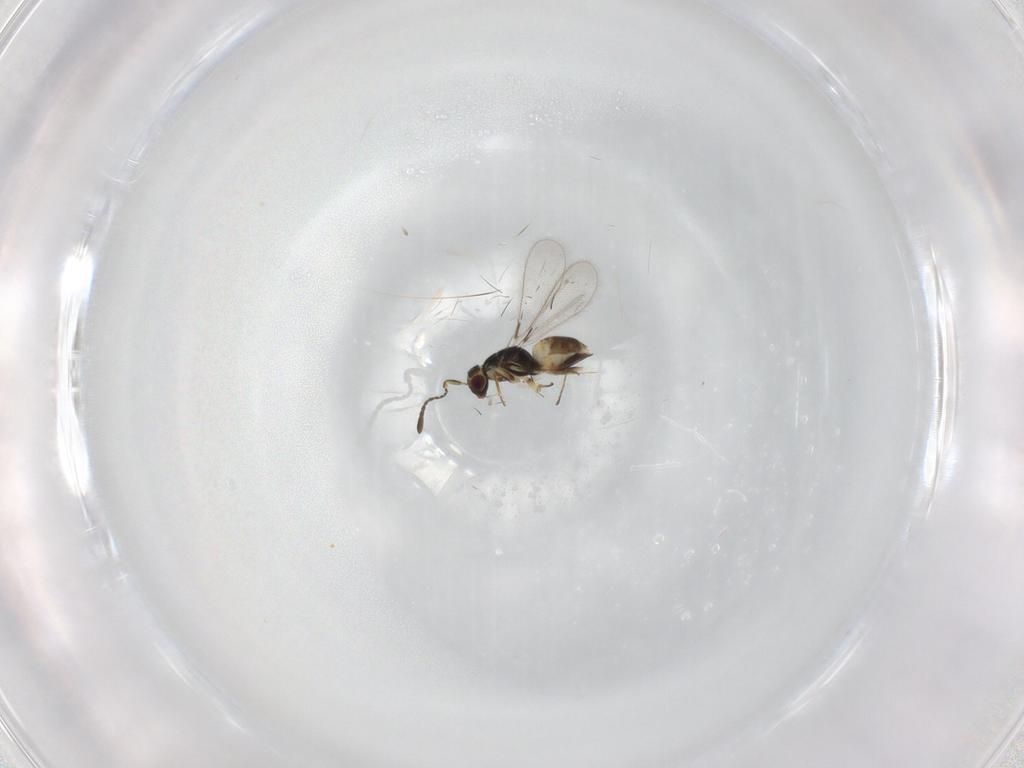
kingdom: Animalia
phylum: Arthropoda
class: Insecta
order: Hymenoptera
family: Mymaridae
